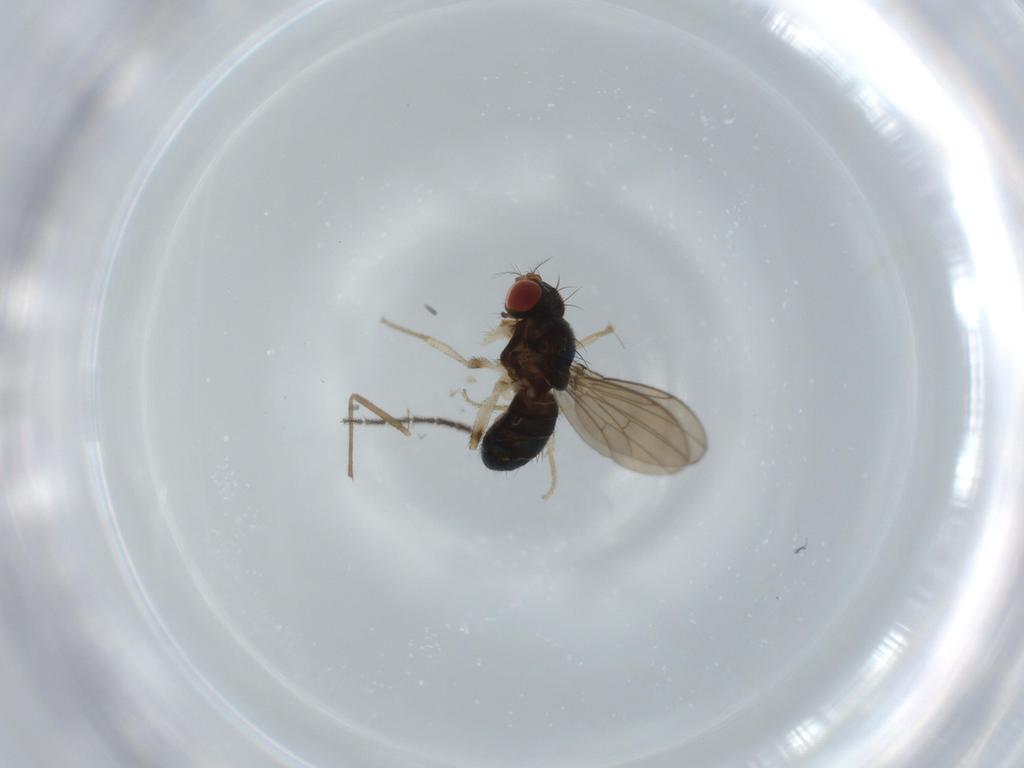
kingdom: Animalia
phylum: Arthropoda
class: Insecta
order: Diptera
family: Drosophilidae
